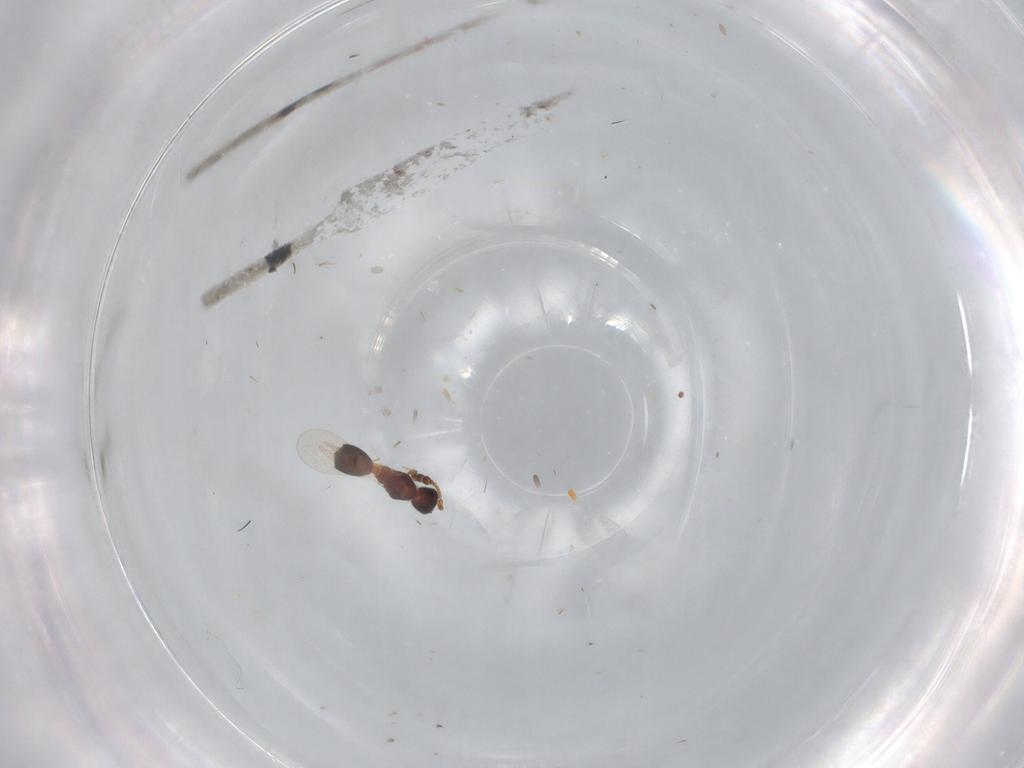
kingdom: Animalia
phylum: Arthropoda
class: Insecta
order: Hymenoptera
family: Diapriidae
